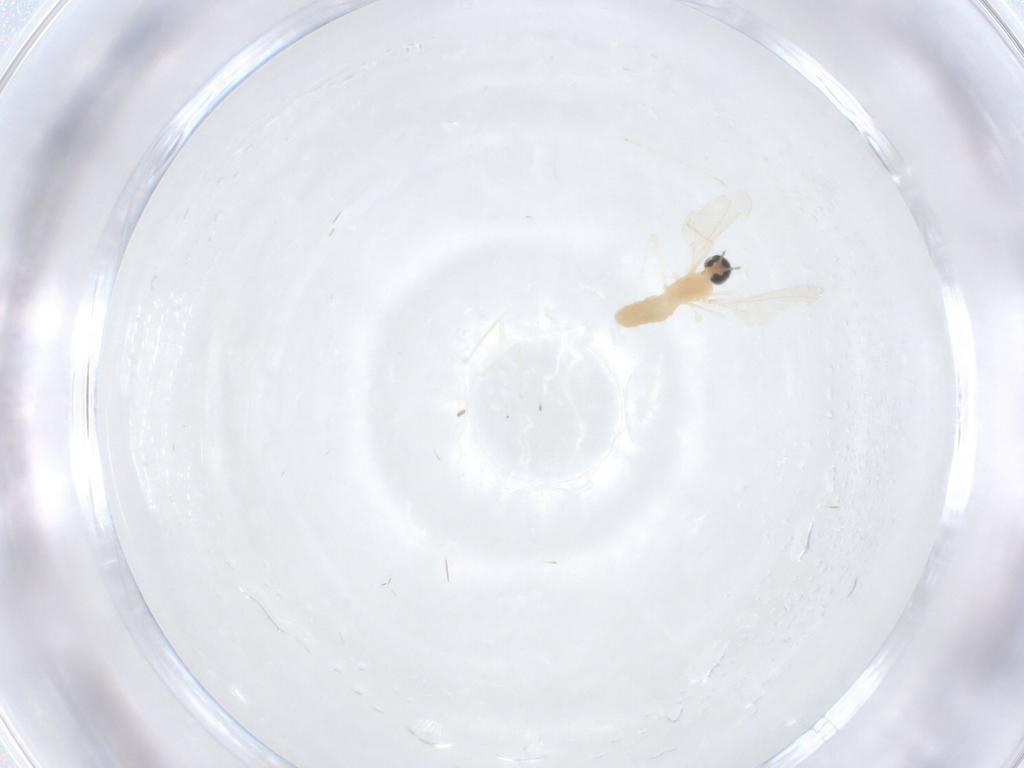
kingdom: Animalia
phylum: Arthropoda
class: Insecta
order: Diptera
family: Cecidomyiidae
